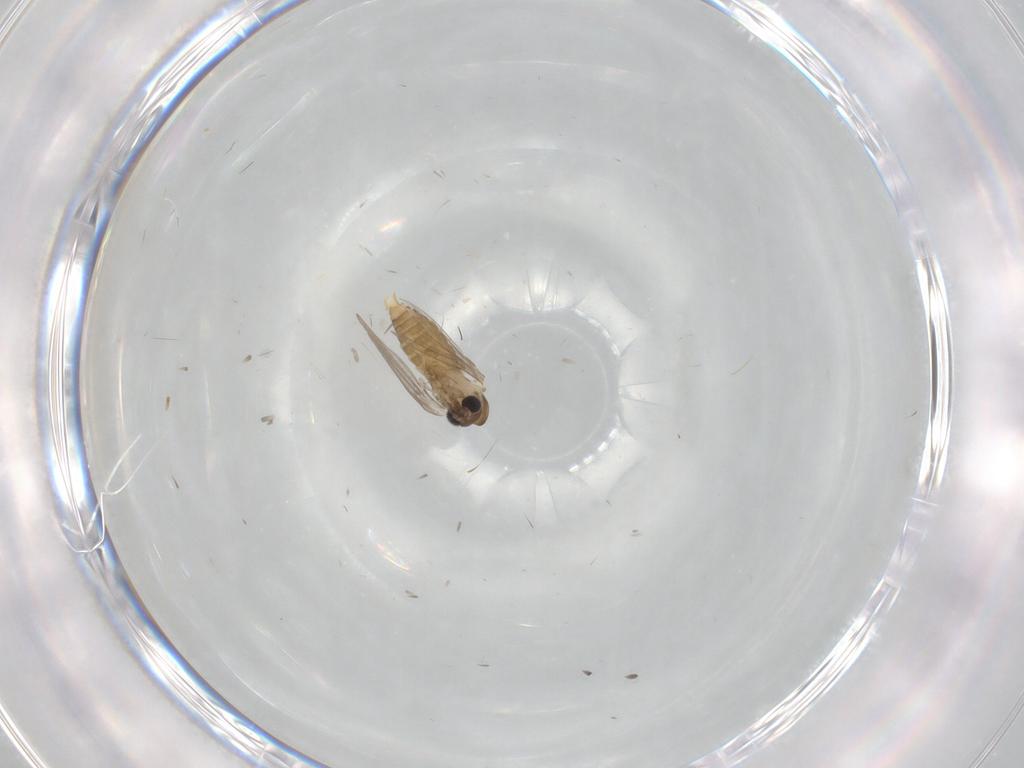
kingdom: Animalia
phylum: Arthropoda
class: Insecta
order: Diptera
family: Psychodidae
